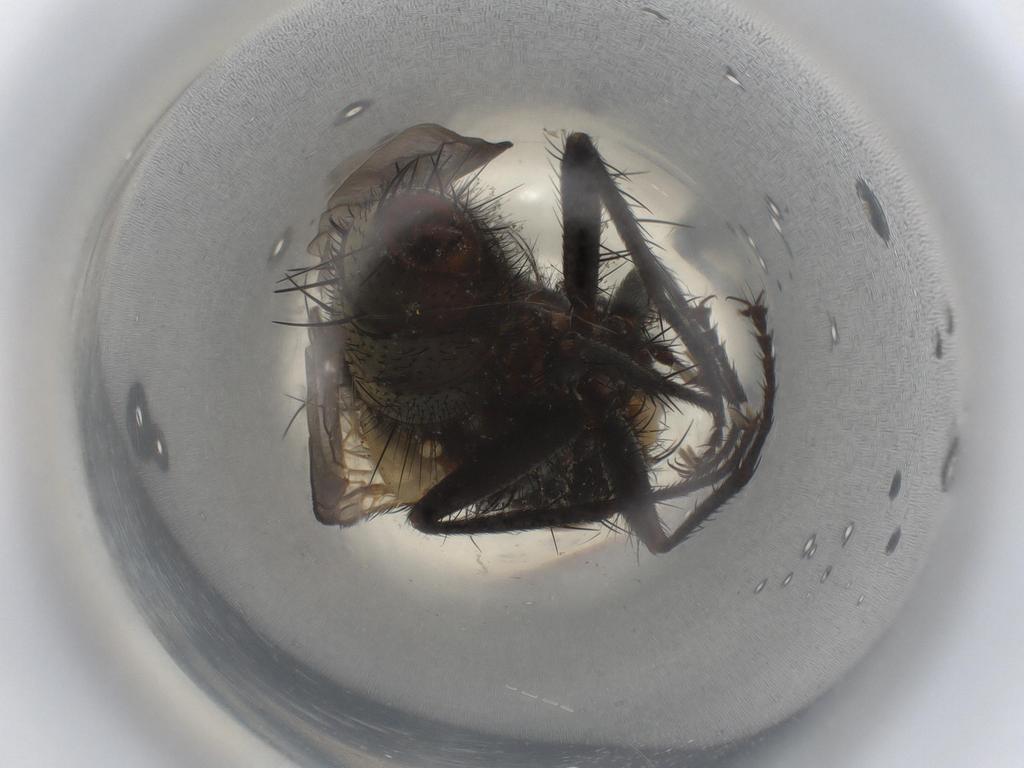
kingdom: Animalia
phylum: Arthropoda
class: Insecta
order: Diptera
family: Tachinidae
